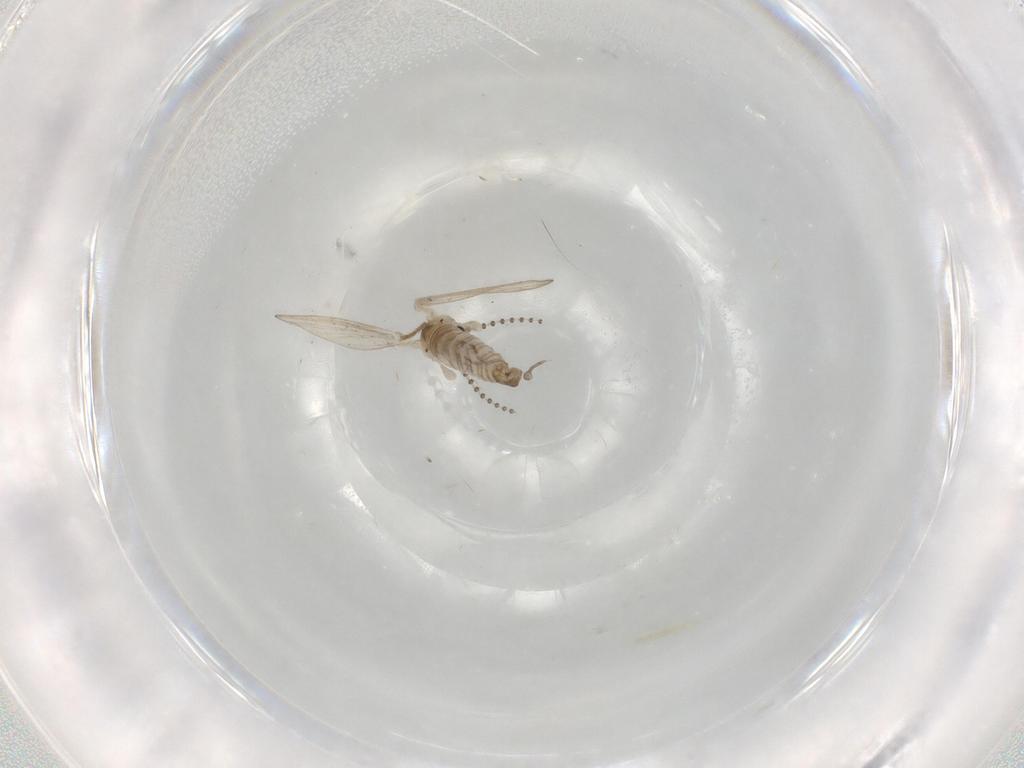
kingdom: Animalia
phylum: Arthropoda
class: Insecta
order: Diptera
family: Psychodidae
